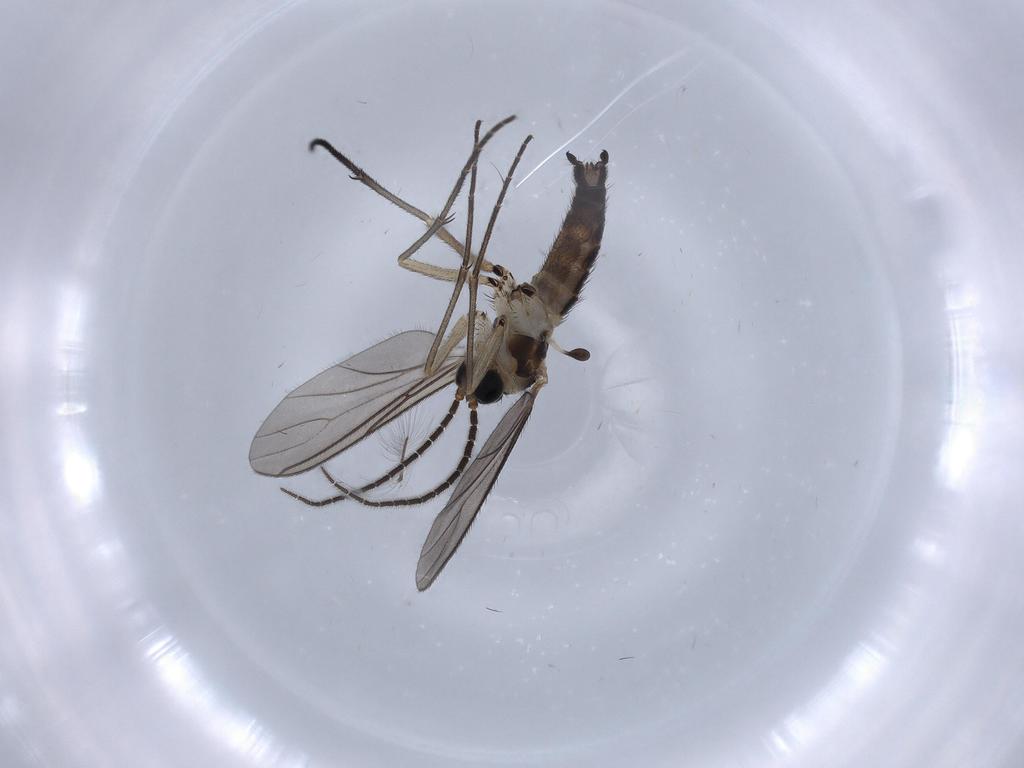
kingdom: Animalia
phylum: Arthropoda
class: Insecta
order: Diptera
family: Sciaridae
